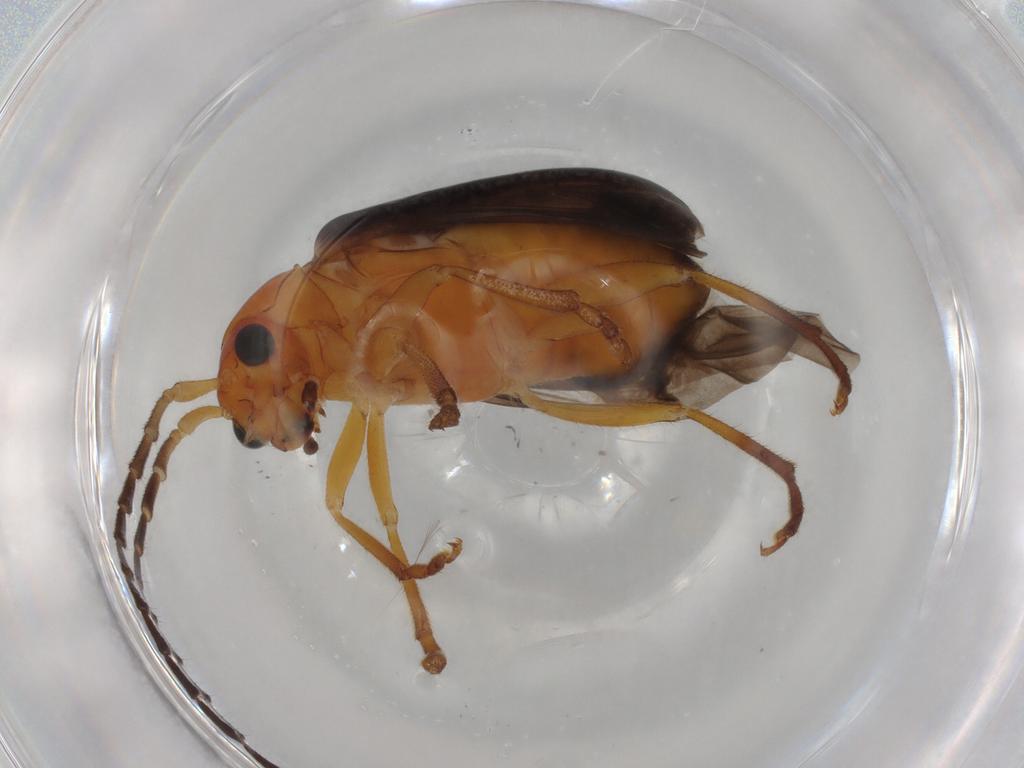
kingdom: Animalia
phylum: Arthropoda
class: Insecta
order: Coleoptera
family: Chrysomelidae
